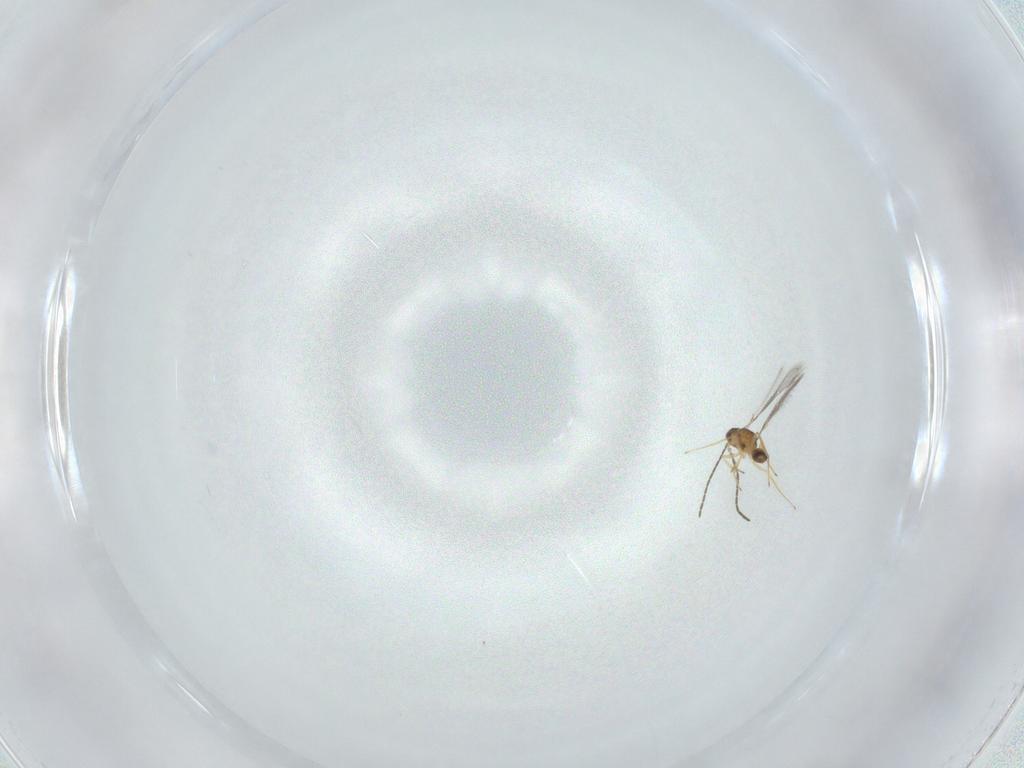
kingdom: Animalia
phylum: Arthropoda
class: Insecta
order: Hymenoptera
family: Mymaridae
